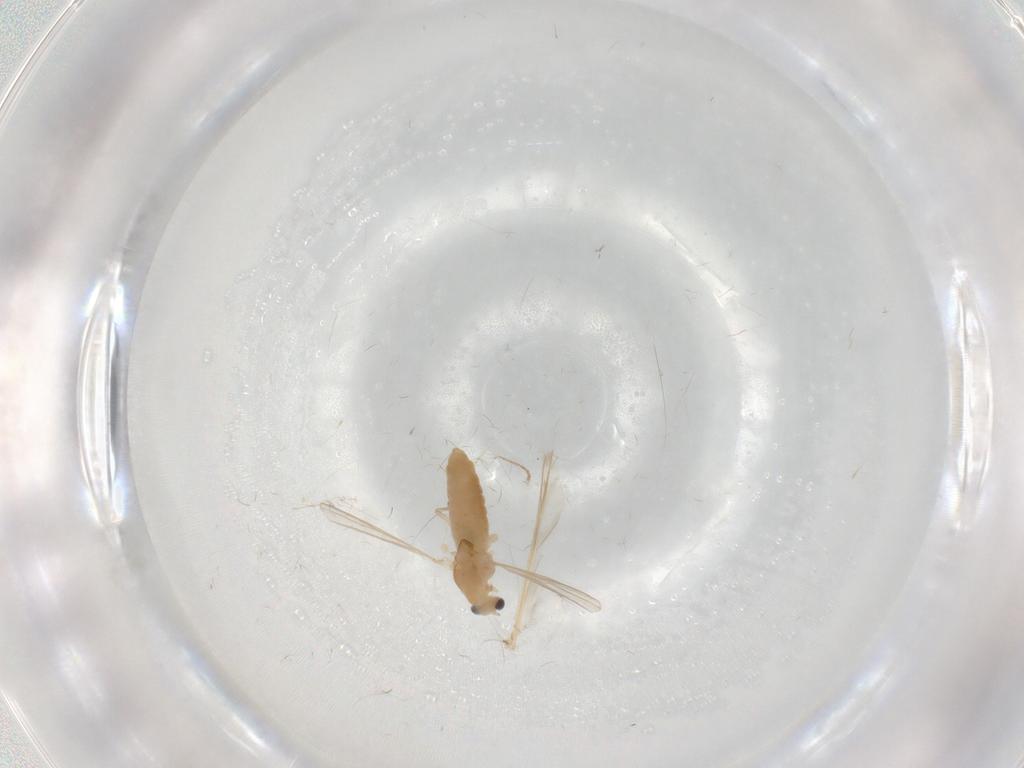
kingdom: Animalia
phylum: Arthropoda
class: Insecta
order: Diptera
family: Chironomidae
